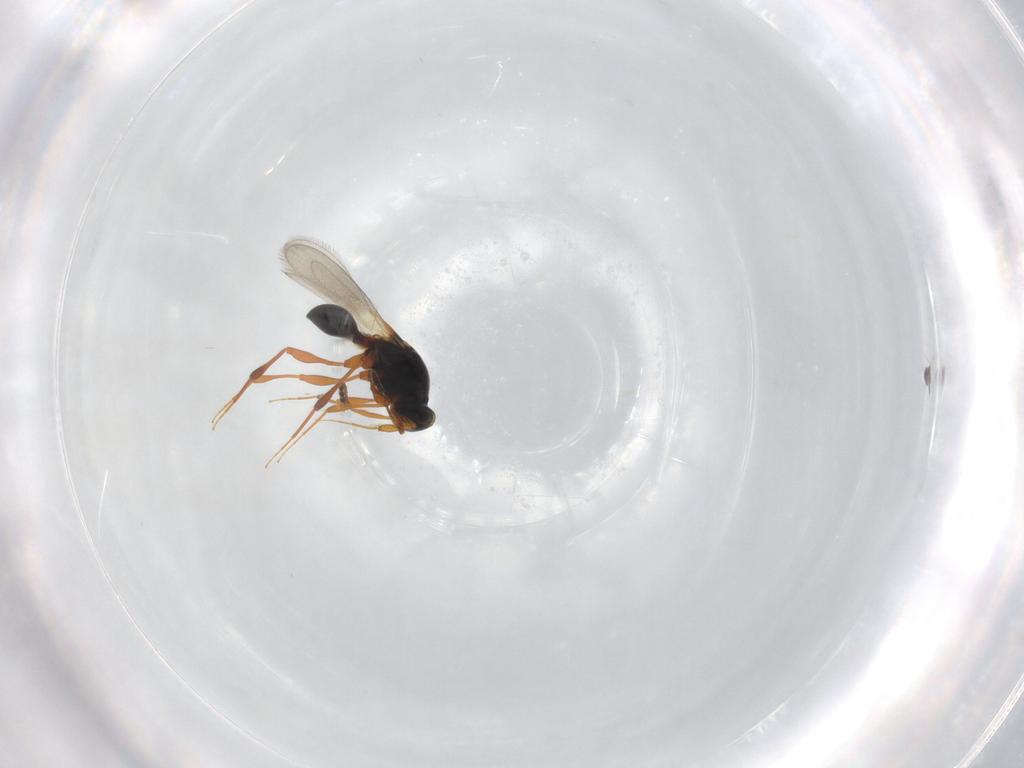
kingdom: Animalia
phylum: Arthropoda
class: Insecta
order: Hymenoptera
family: Platygastridae
